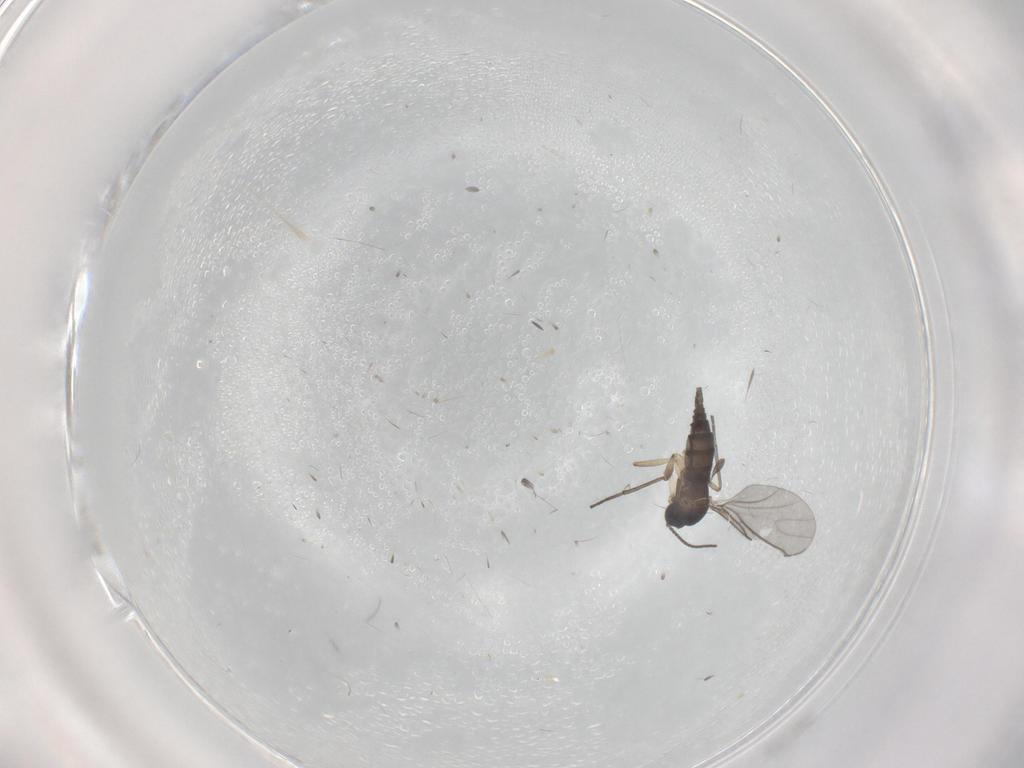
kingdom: Animalia
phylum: Arthropoda
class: Insecta
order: Diptera
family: Sciaridae
